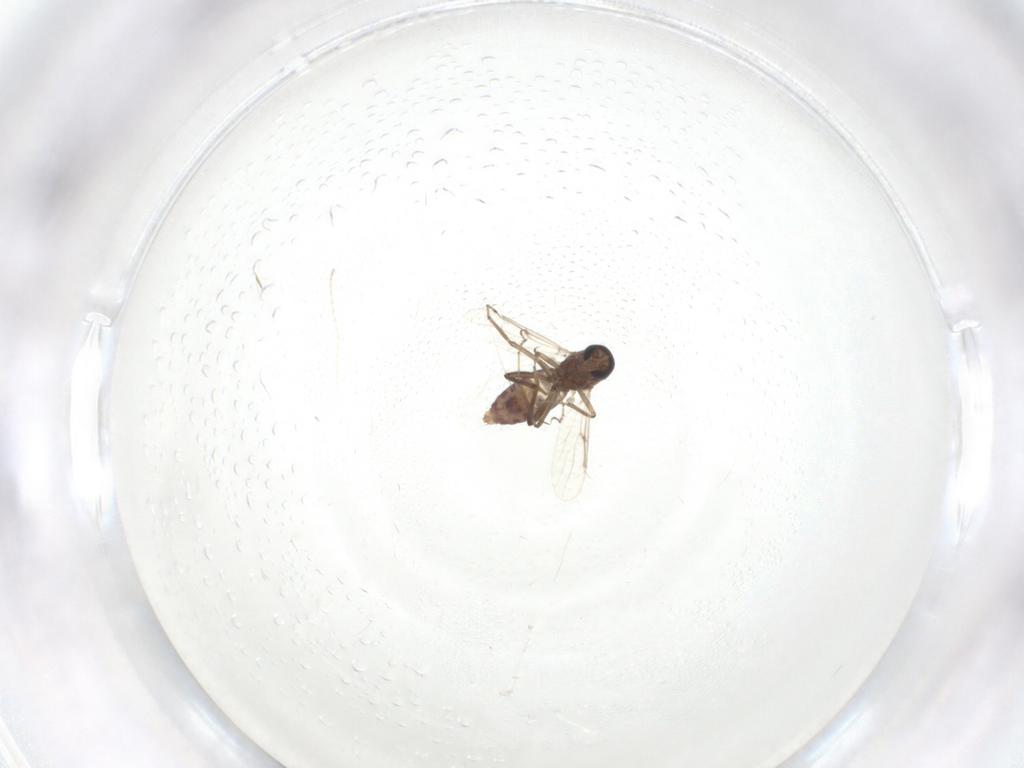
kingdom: Animalia
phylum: Arthropoda
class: Insecta
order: Diptera
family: Ceratopogonidae
